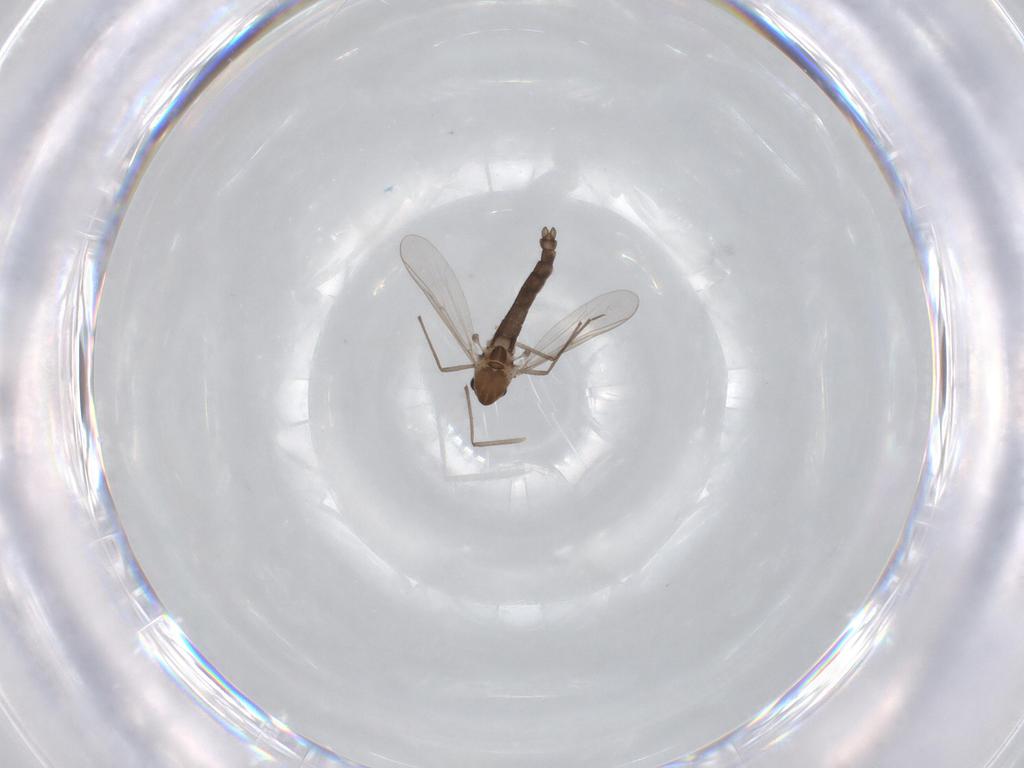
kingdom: Animalia
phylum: Arthropoda
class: Insecta
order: Diptera
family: Chironomidae
